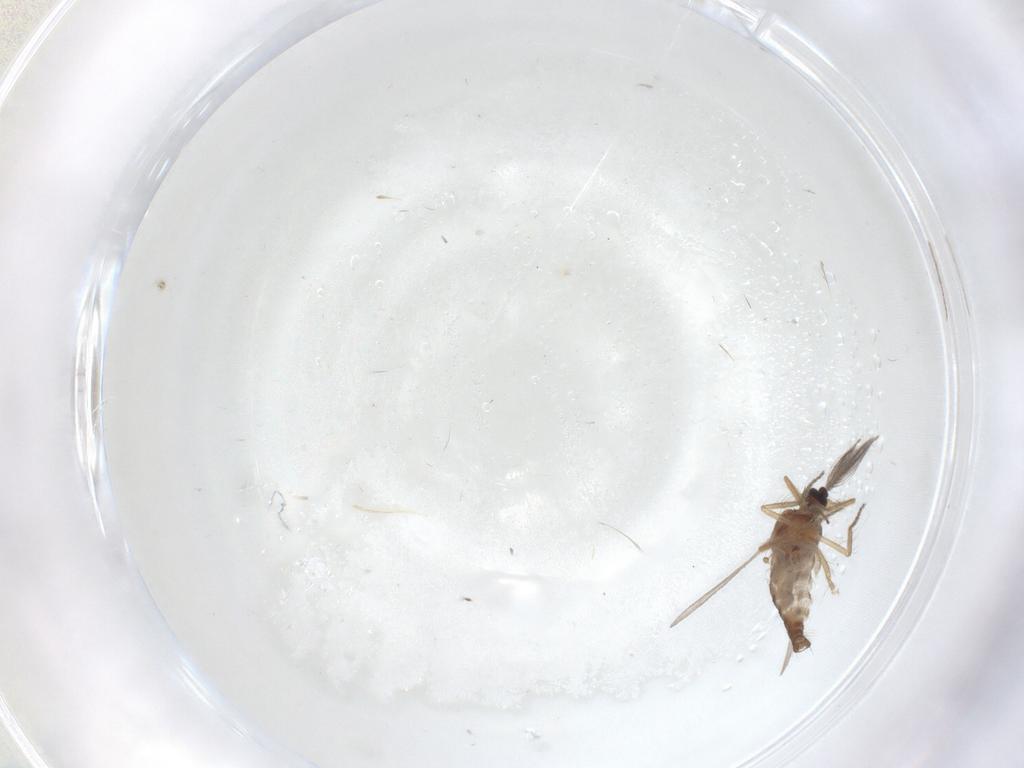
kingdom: Animalia
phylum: Arthropoda
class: Insecta
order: Diptera
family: Ceratopogonidae
